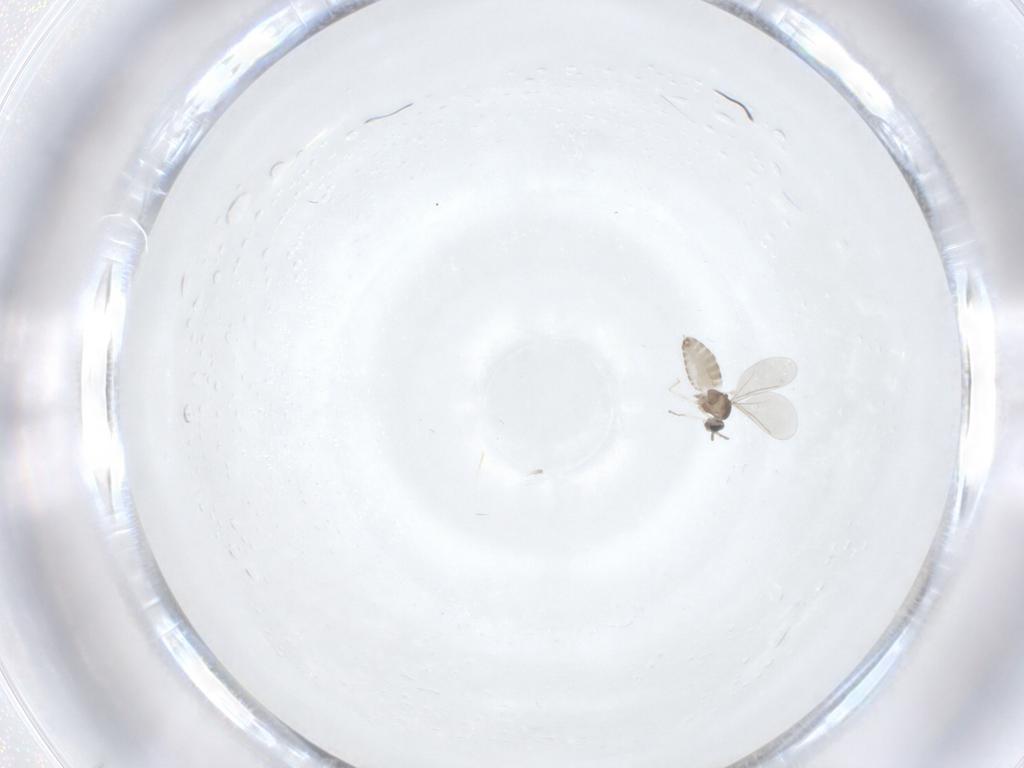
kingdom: Animalia
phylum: Arthropoda
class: Insecta
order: Diptera
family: Cecidomyiidae
